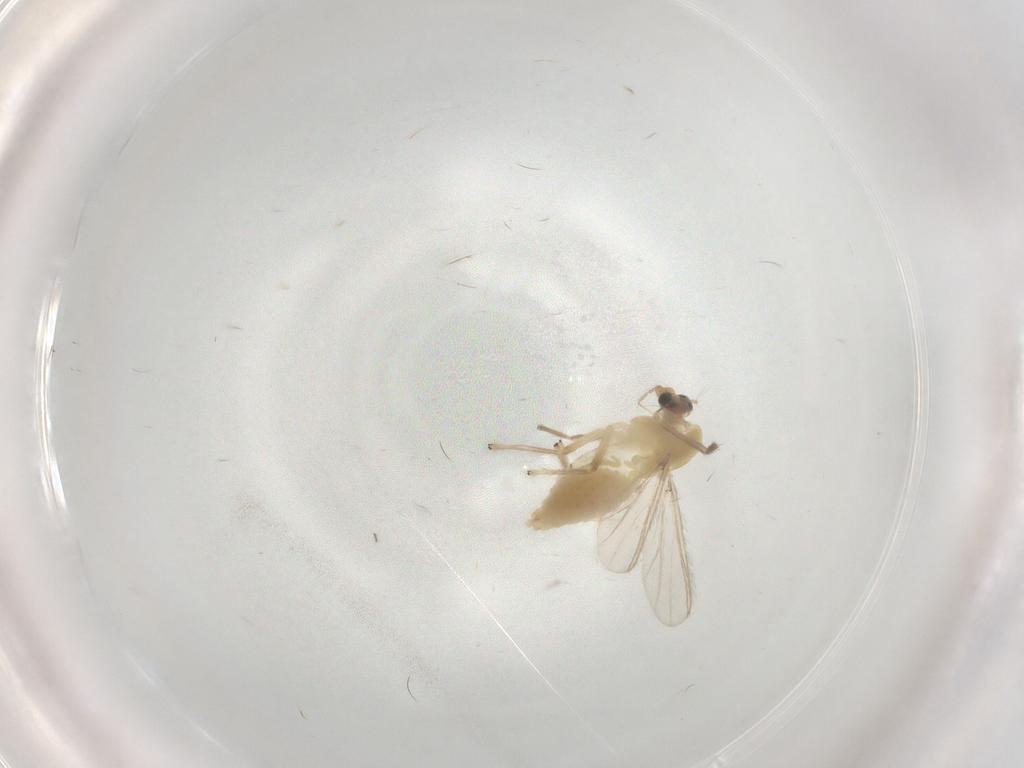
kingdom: Animalia
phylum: Arthropoda
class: Insecta
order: Diptera
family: Chironomidae
